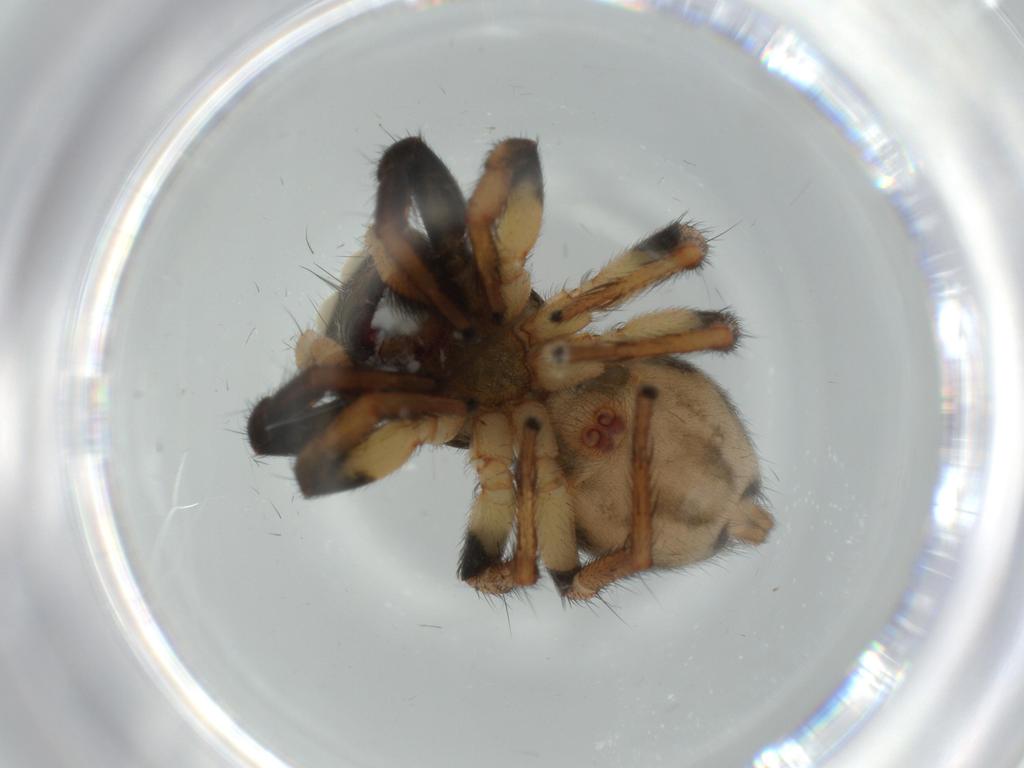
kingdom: Animalia
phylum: Arthropoda
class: Arachnida
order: Araneae
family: Salticidae
